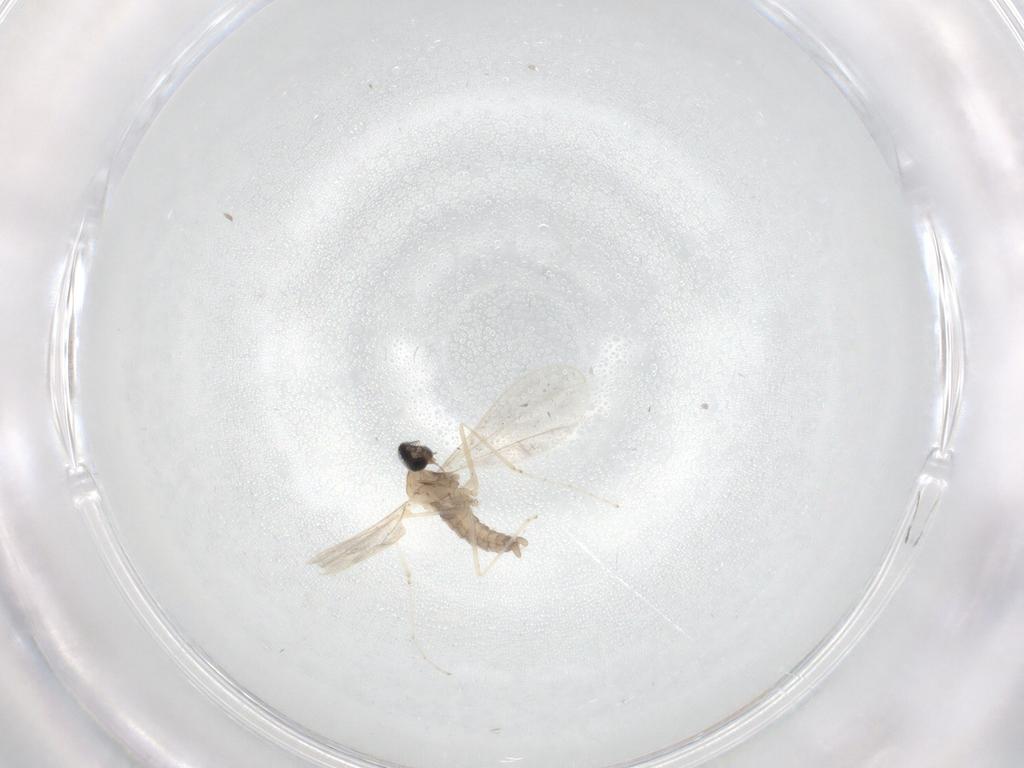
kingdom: Animalia
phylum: Arthropoda
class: Insecta
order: Diptera
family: Cecidomyiidae
